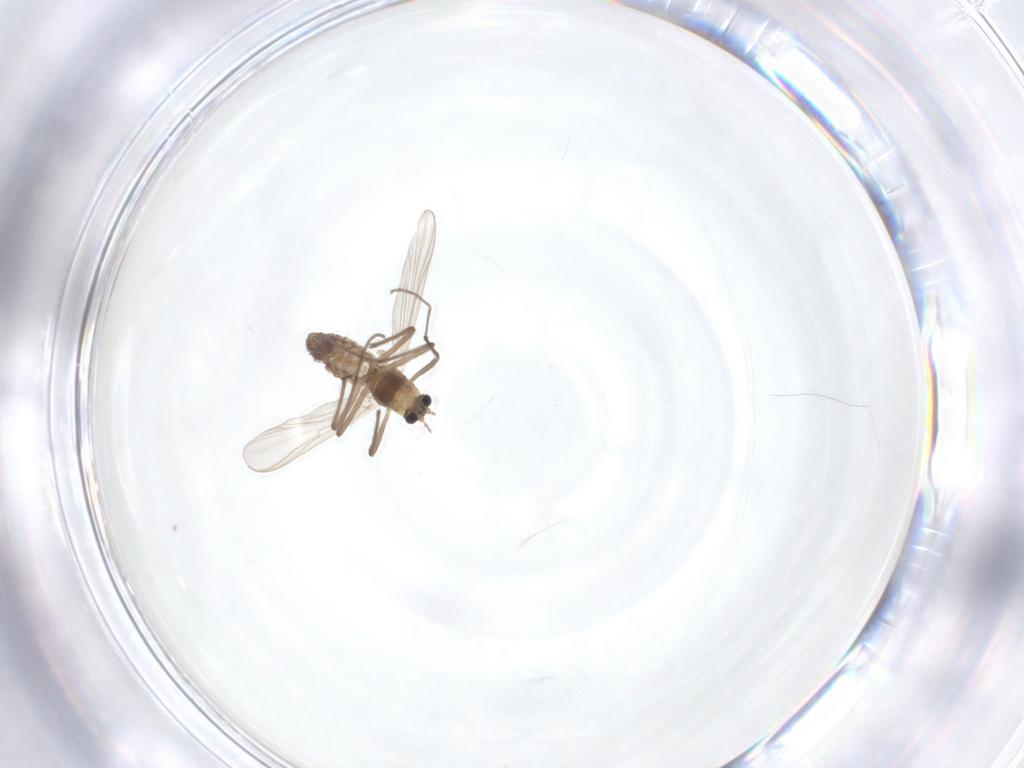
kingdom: Animalia
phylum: Arthropoda
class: Insecta
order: Diptera
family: Chironomidae
